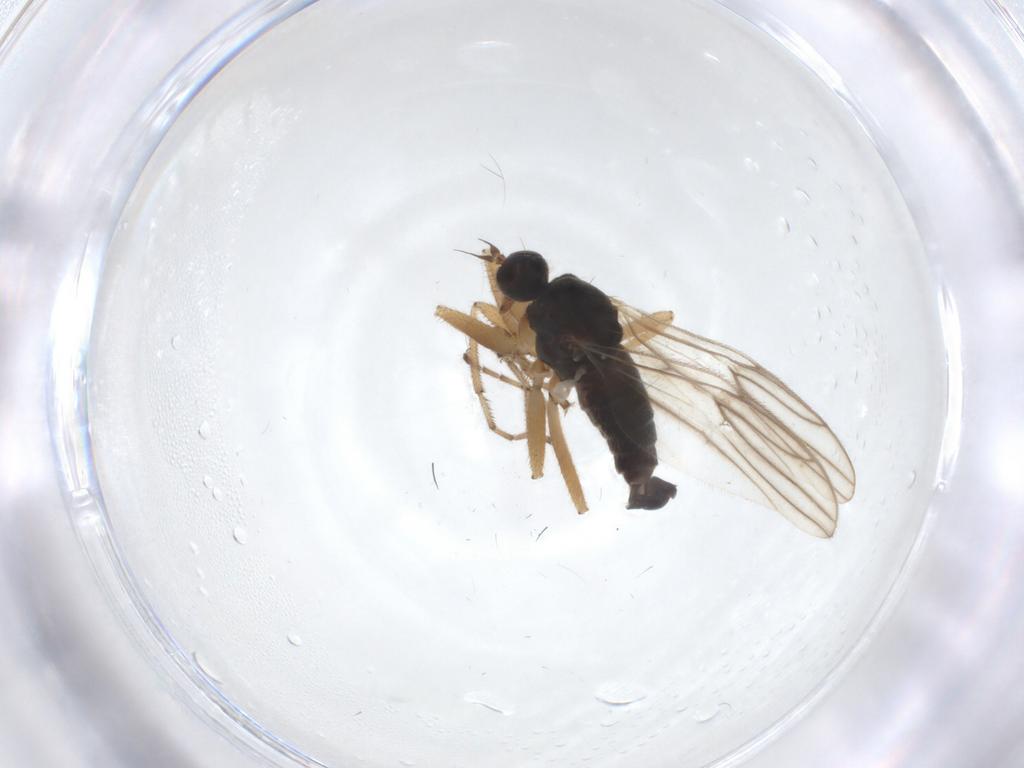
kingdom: Animalia
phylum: Arthropoda
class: Insecta
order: Diptera
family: Hybotidae
